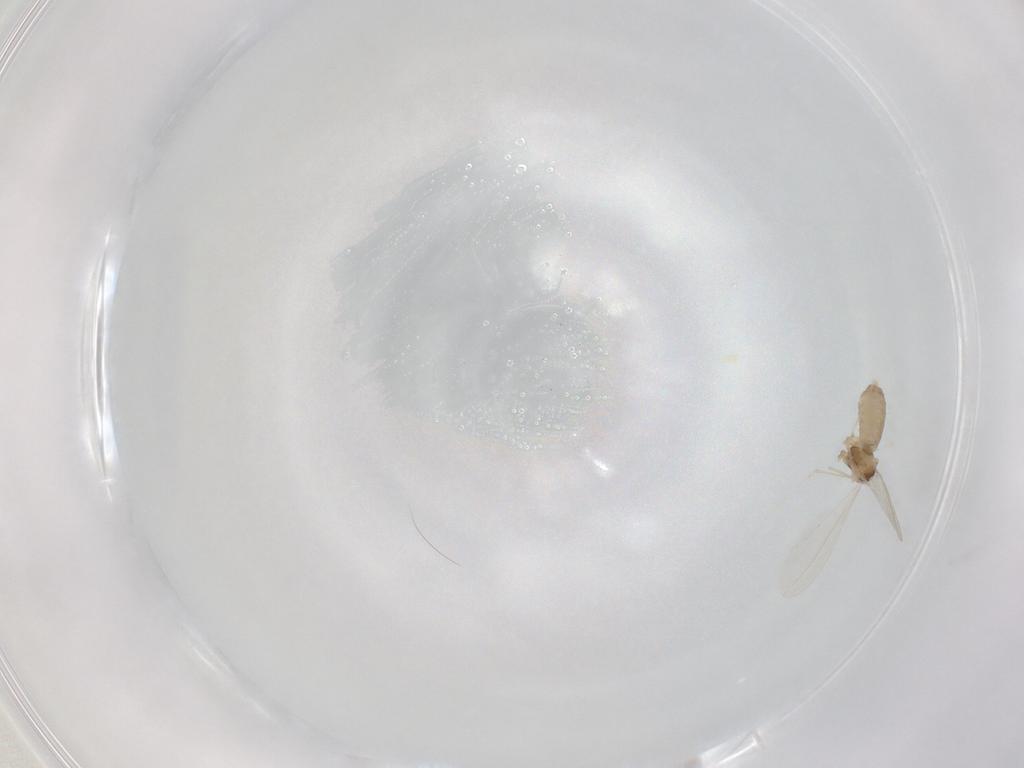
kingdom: Animalia
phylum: Arthropoda
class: Insecta
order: Diptera
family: Cecidomyiidae
